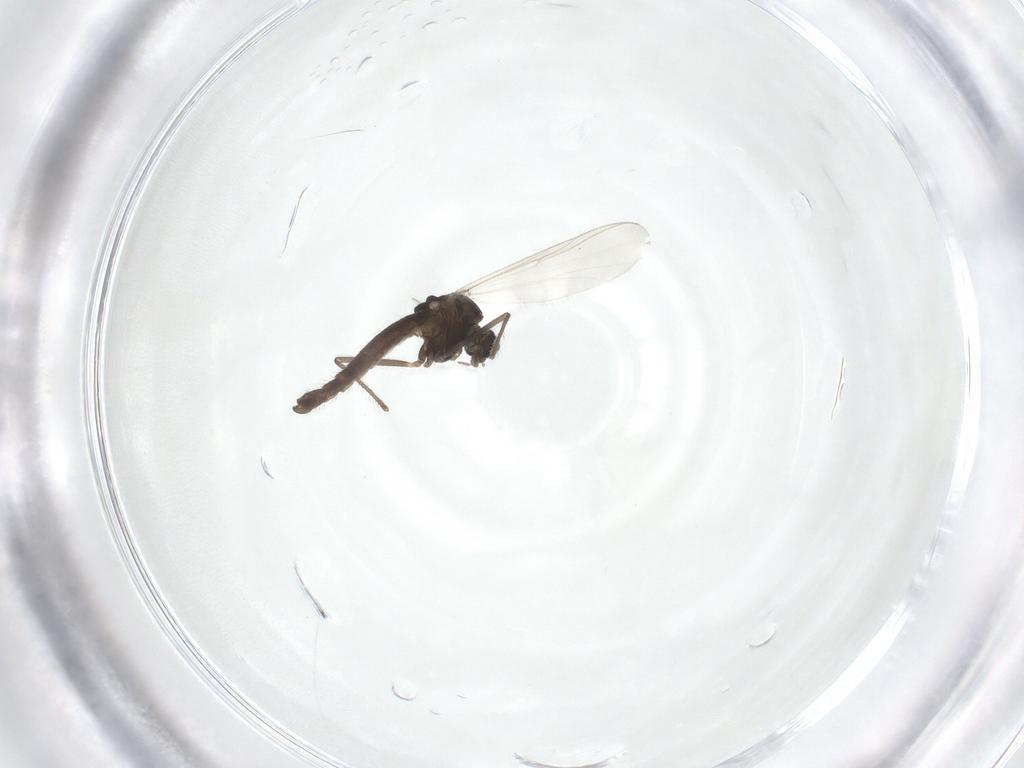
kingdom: Animalia
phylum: Arthropoda
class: Insecta
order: Diptera
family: Chironomidae
